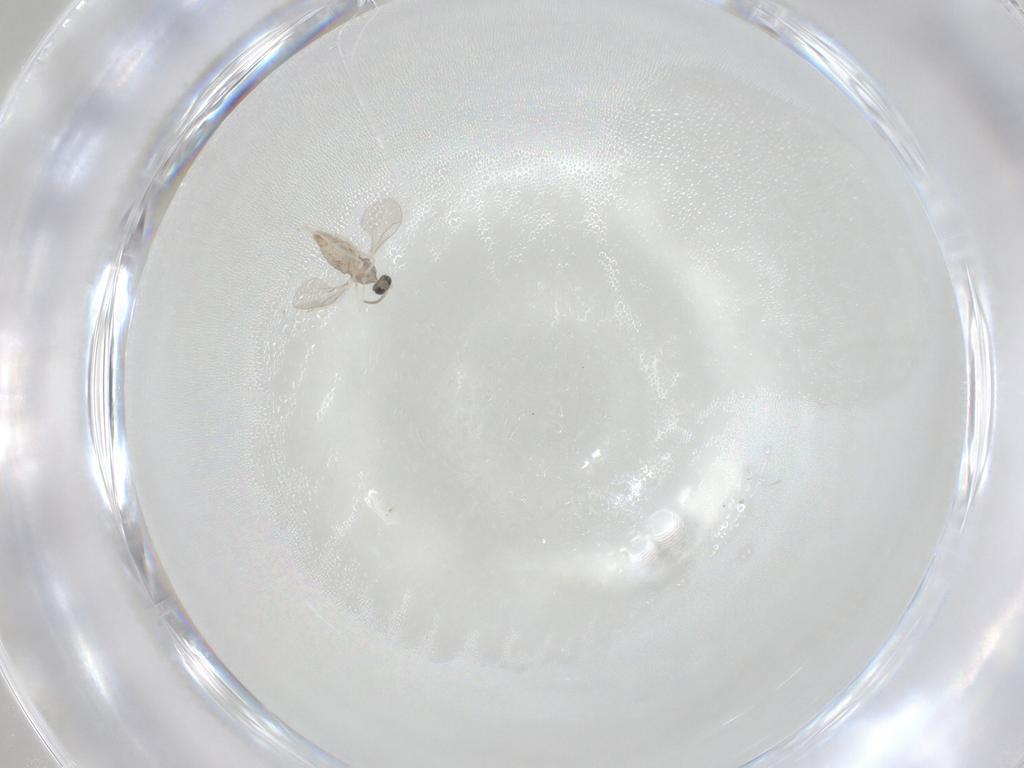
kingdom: Animalia
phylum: Arthropoda
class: Insecta
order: Diptera
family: Cecidomyiidae
